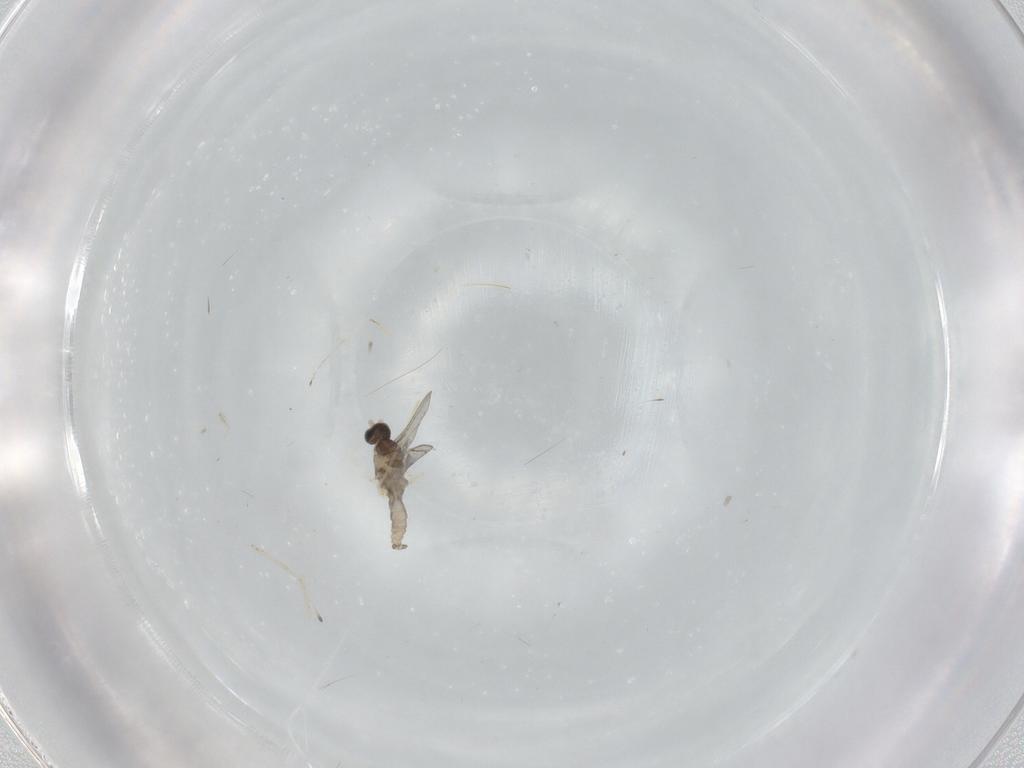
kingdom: Animalia
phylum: Arthropoda
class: Insecta
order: Diptera
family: Cecidomyiidae
